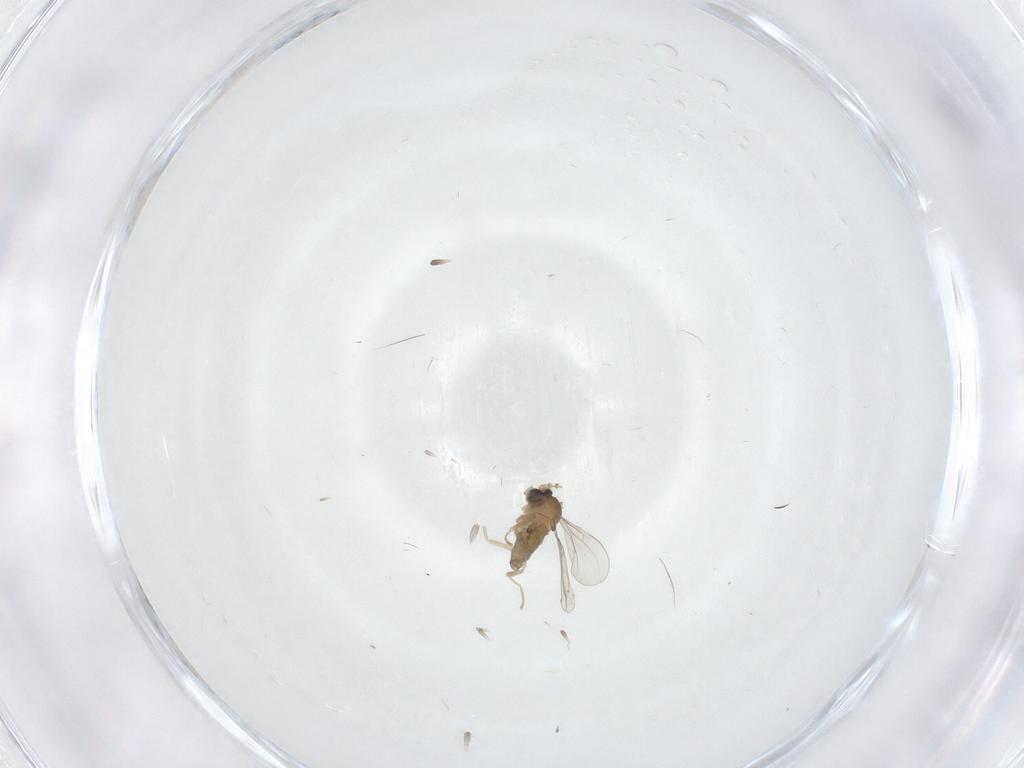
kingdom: Animalia
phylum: Arthropoda
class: Insecta
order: Diptera
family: Cecidomyiidae
